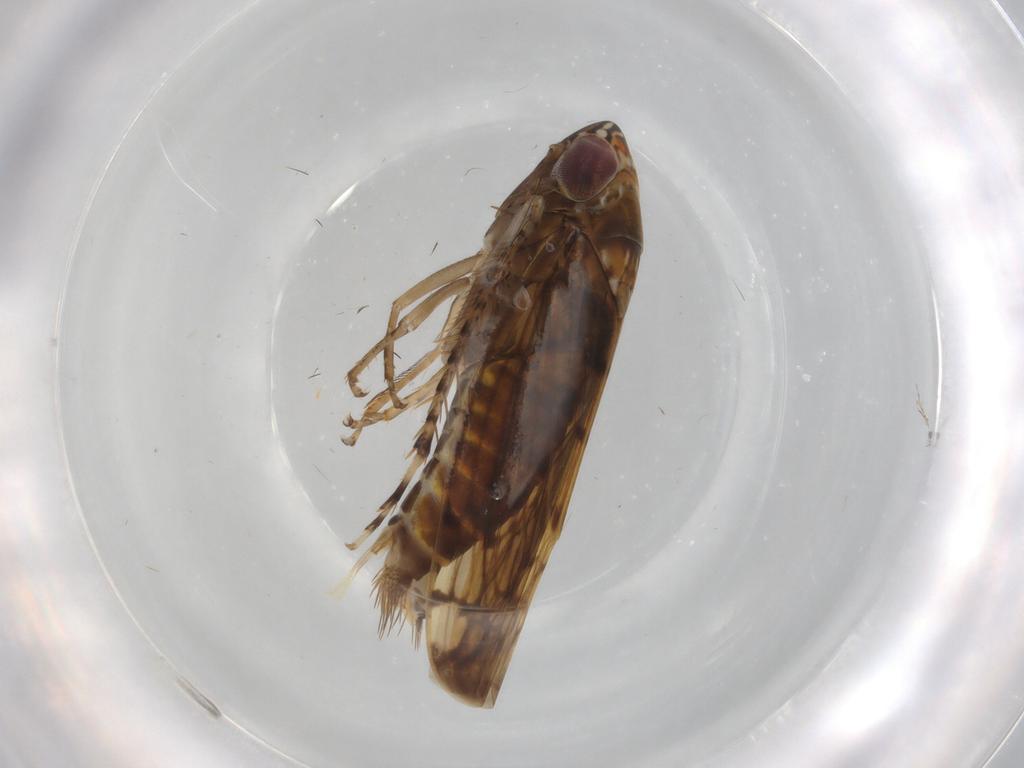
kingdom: Animalia
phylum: Arthropoda
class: Insecta
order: Hemiptera
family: Cicadellidae
